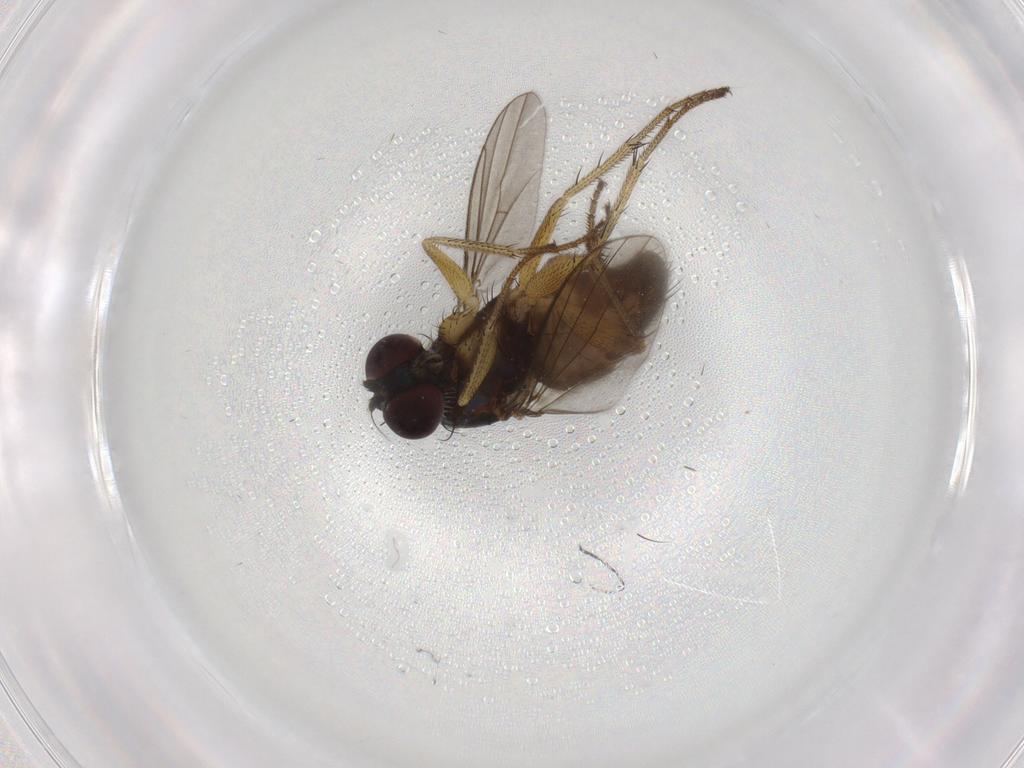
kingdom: Animalia
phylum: Arthropoda
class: Insecta
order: Diptera
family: Dolichopodidae
